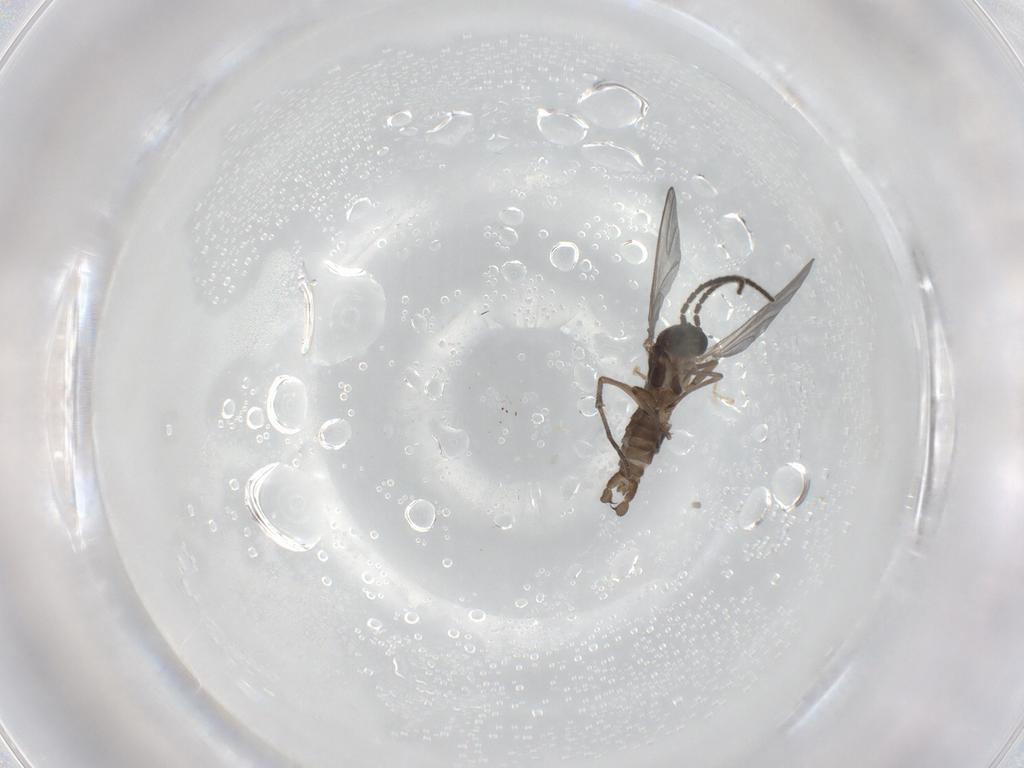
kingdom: Animalia
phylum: Arthropoda
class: Insecta
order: Diptera
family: Sciaridae
